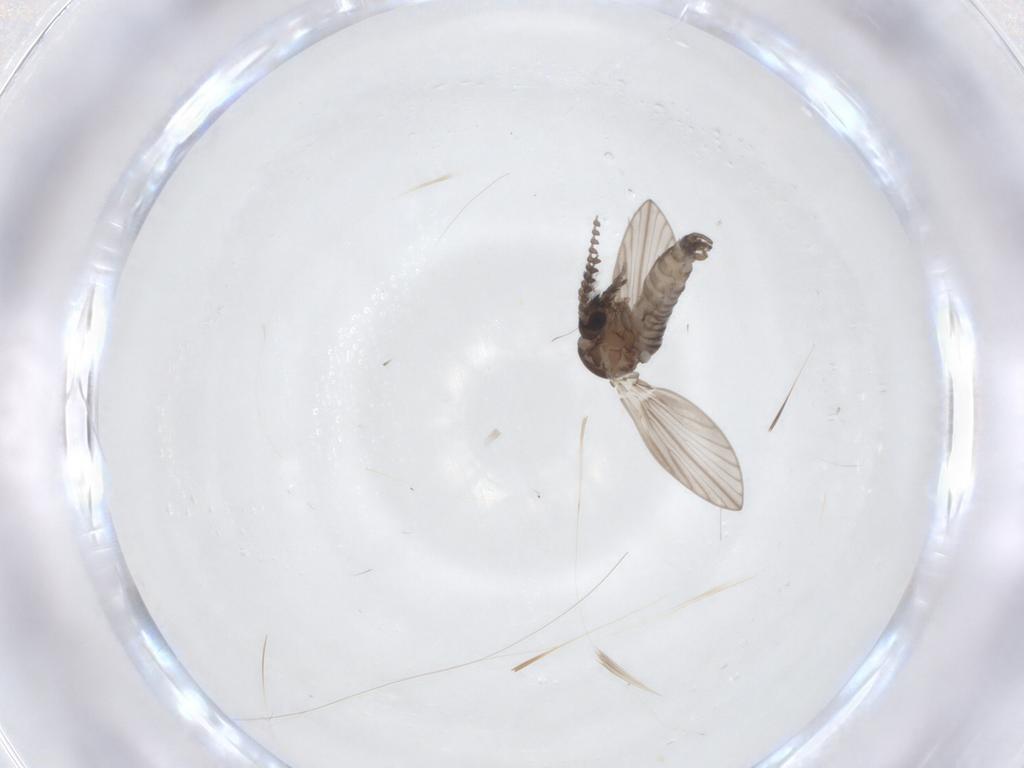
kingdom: Animalia
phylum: Arthropoda
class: Insecta
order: Diptera
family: Psychodidae
